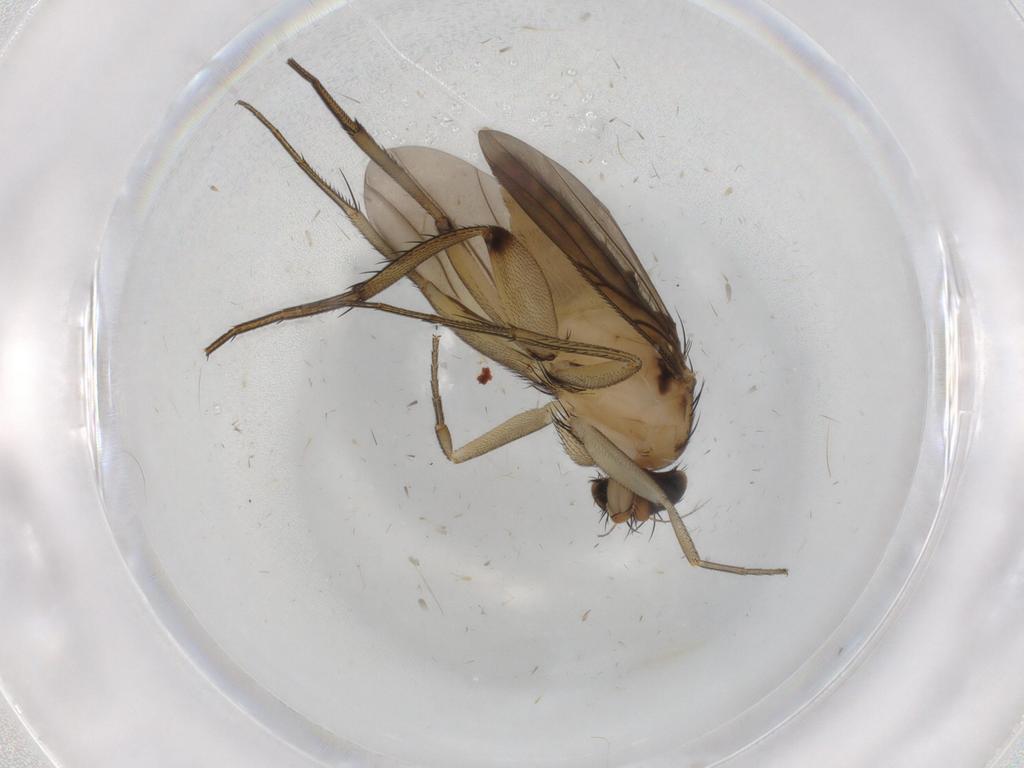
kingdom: Animalia
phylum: Arthropoda
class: Insecta
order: Diptera
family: Phoridae
